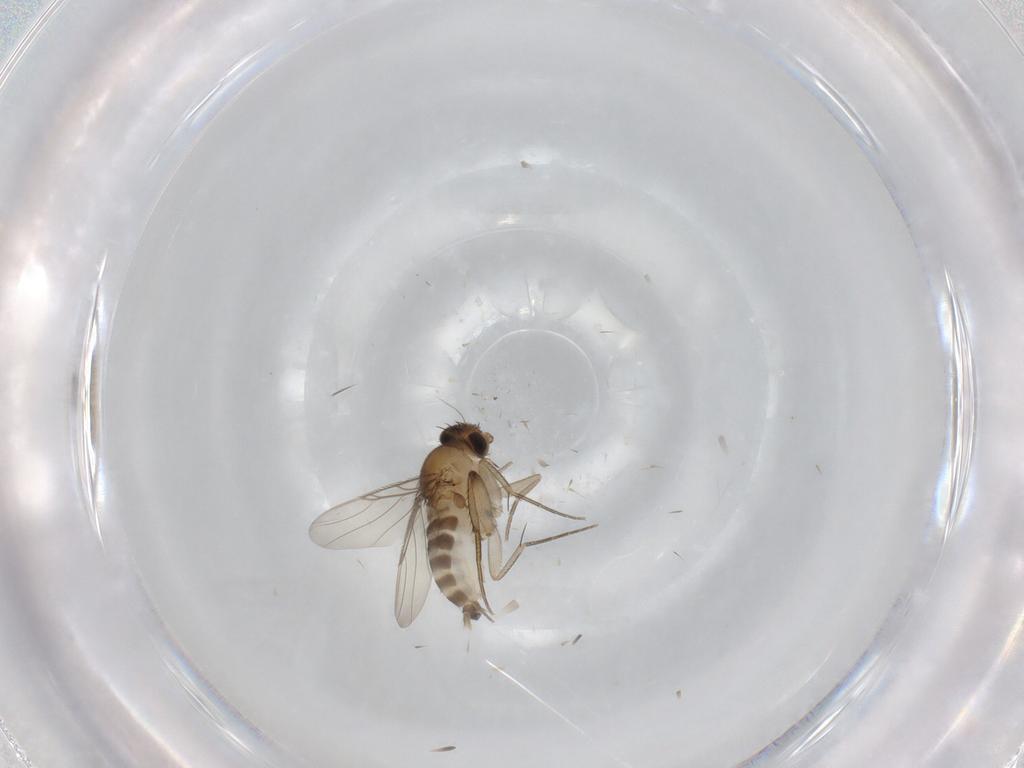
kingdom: Animalia
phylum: Arthropoda
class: Insecta
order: Diptera
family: Phoridae
